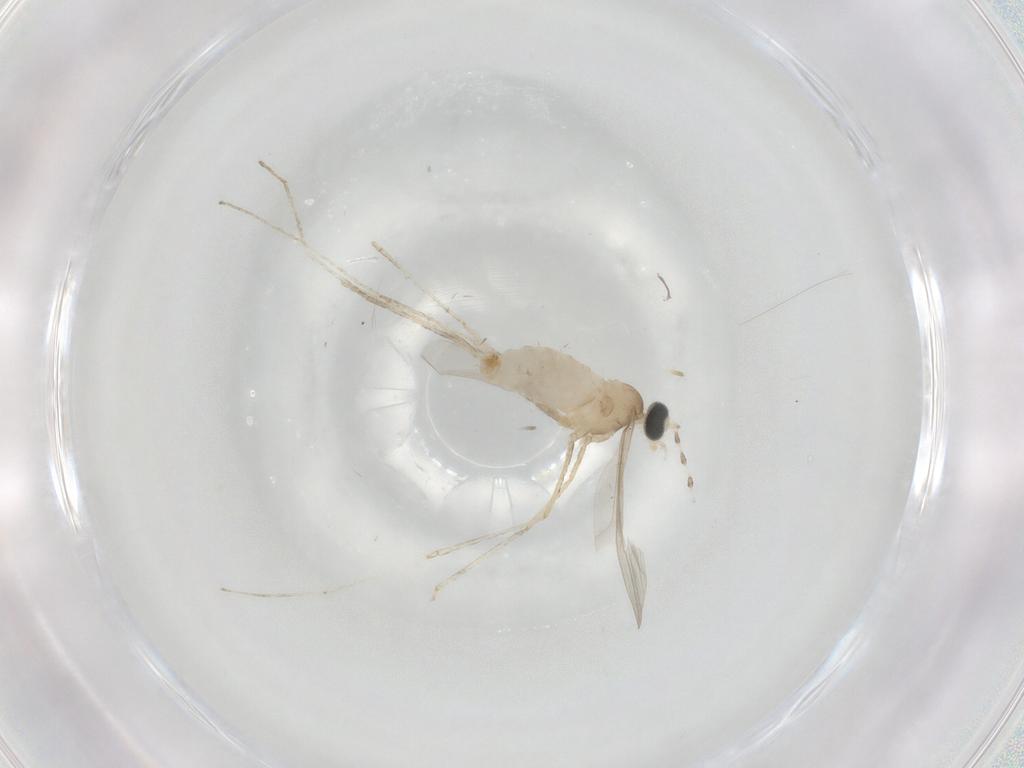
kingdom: Animalia
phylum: Arthropoda
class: Insecta
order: Diptera
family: Cecidomyiidae
